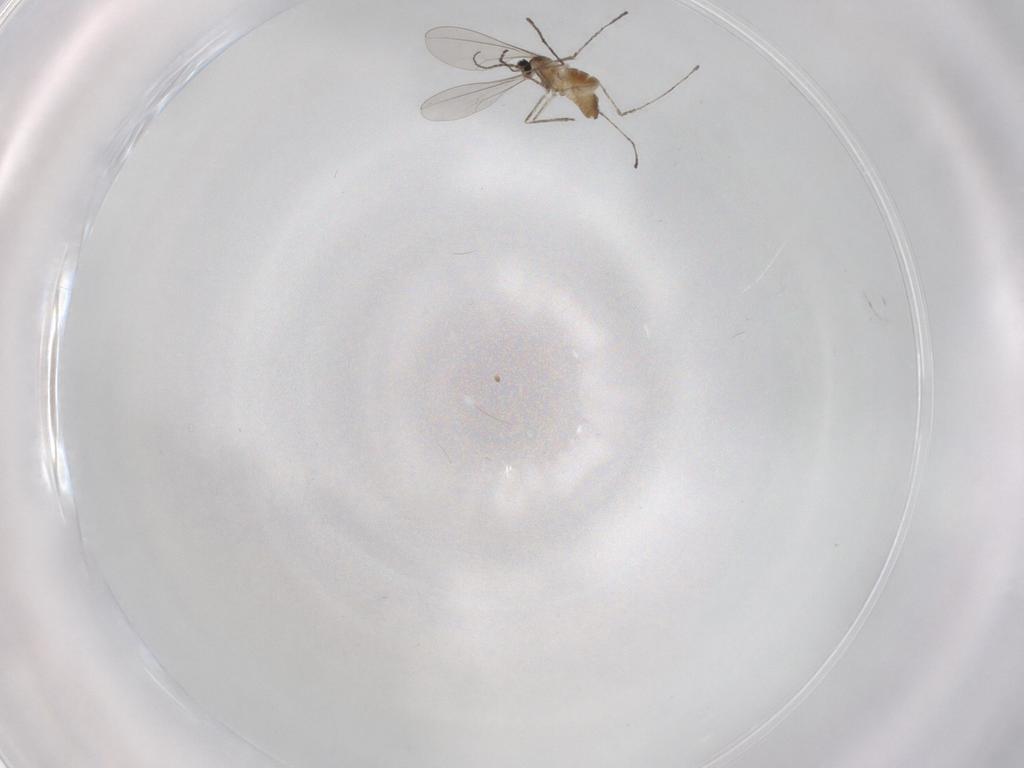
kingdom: Animalia
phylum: Arthropoda
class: Insecta
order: Diptera
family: Cecidomyiidae
